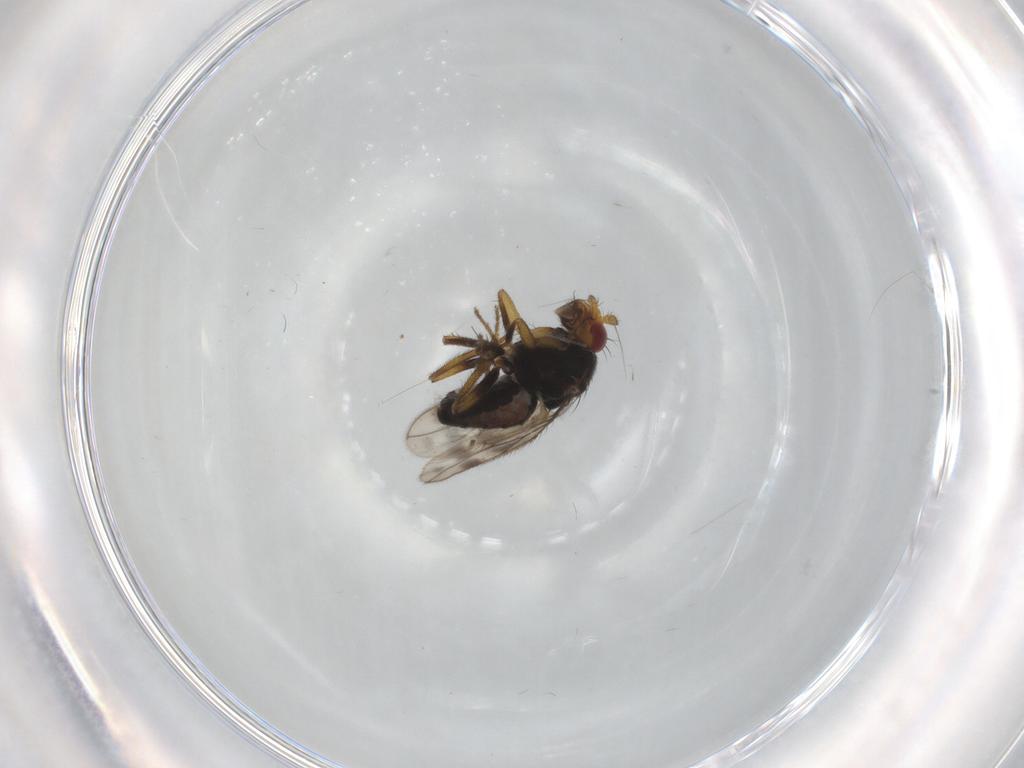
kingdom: Animalia
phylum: Arthropoda
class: Insecta
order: Diptera
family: Sphaeroceridae
